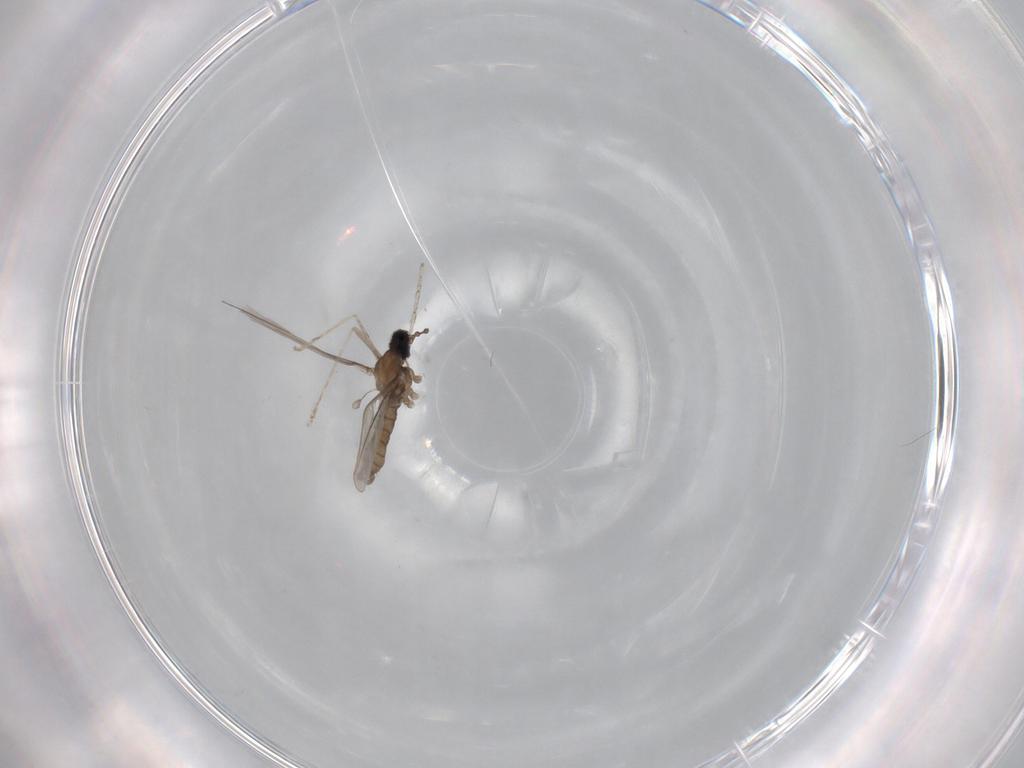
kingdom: Animalia
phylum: Arthropoda
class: Insecta
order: Diptera
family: Cecidomyiidae
